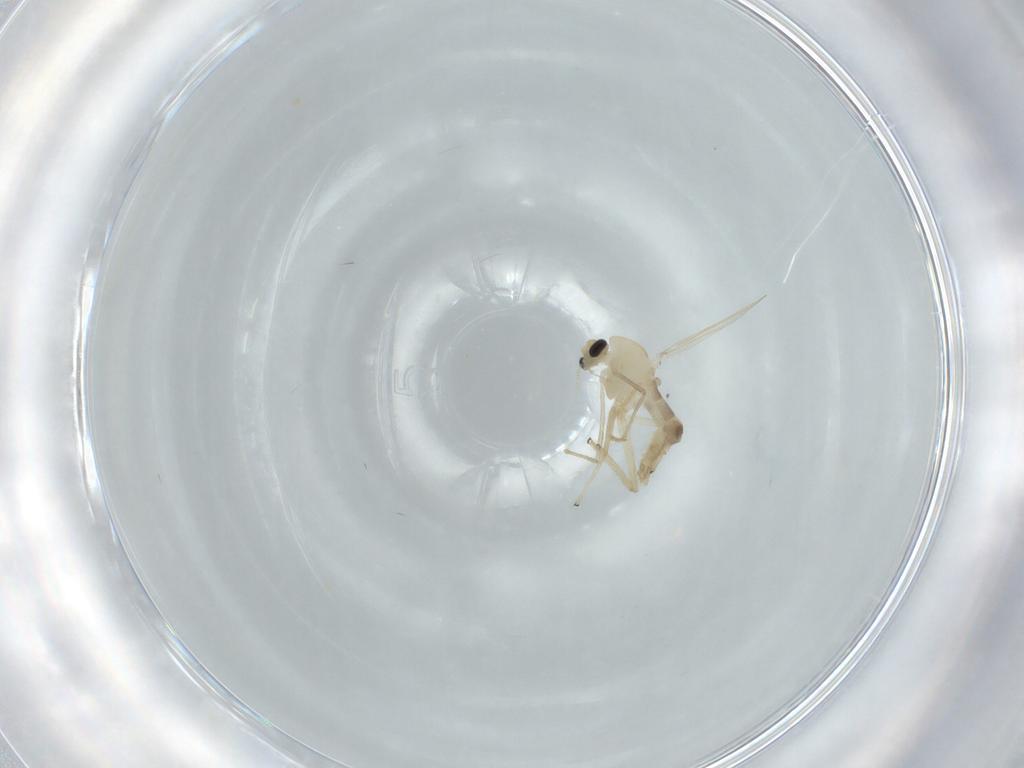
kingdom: Animalia
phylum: Arthropoda
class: Insecta
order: Diptera
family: Chironomidae
